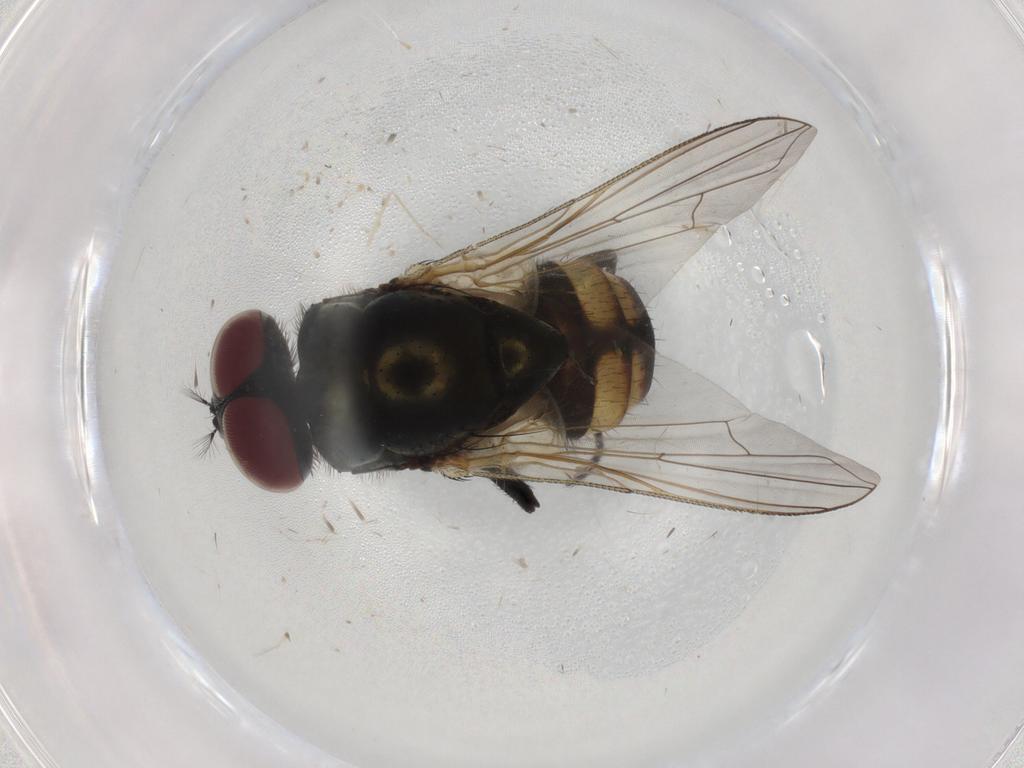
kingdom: Animalia
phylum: Arthropoda
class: Insecta
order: Diptera
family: Muscidae
